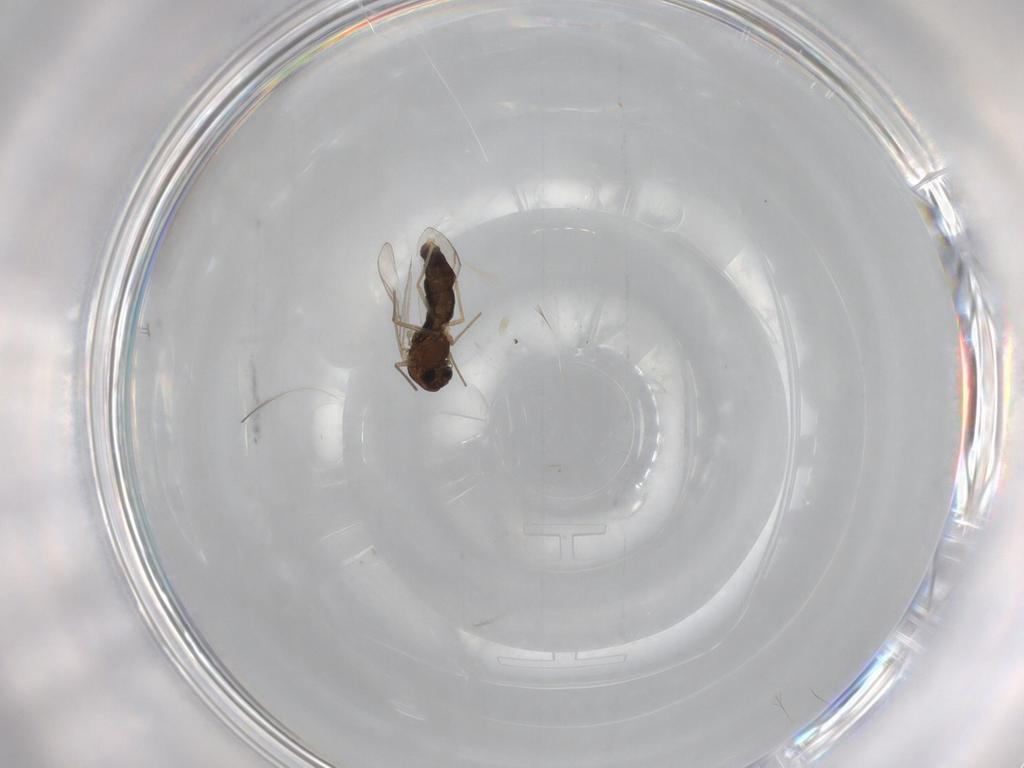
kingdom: Animalia
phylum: Arthropoda
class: Insecta
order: Diptera
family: Chironomidae
